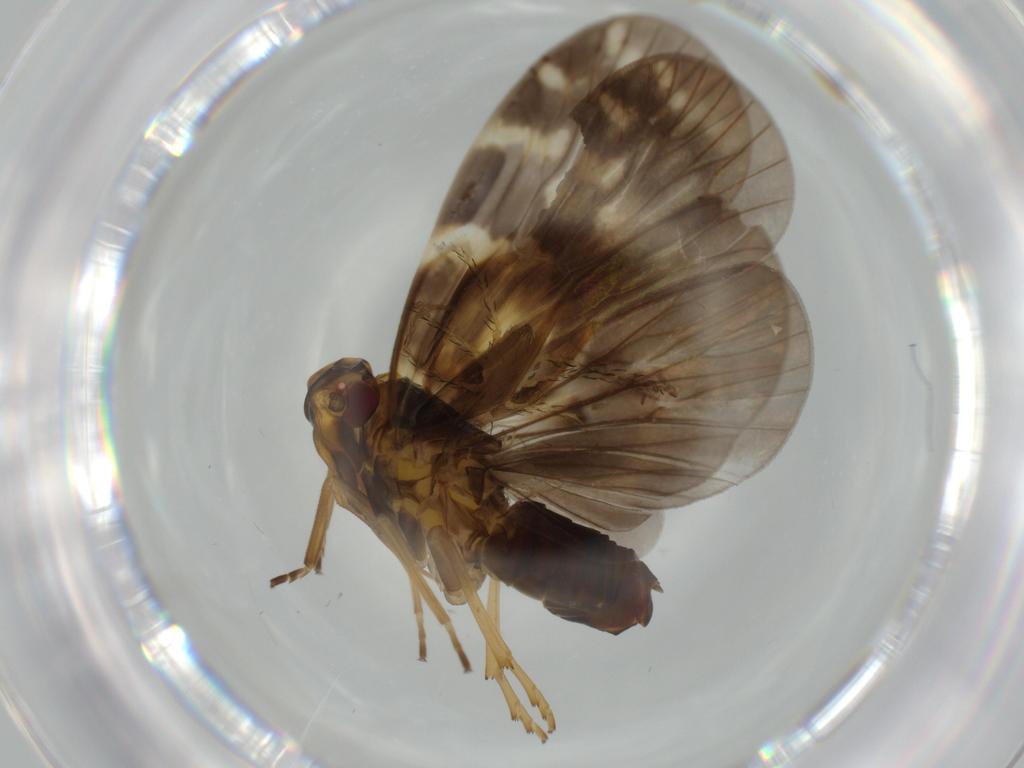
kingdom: Animalia
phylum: Arthropoda
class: Insecta
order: Hemiptera
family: Cixiidae
